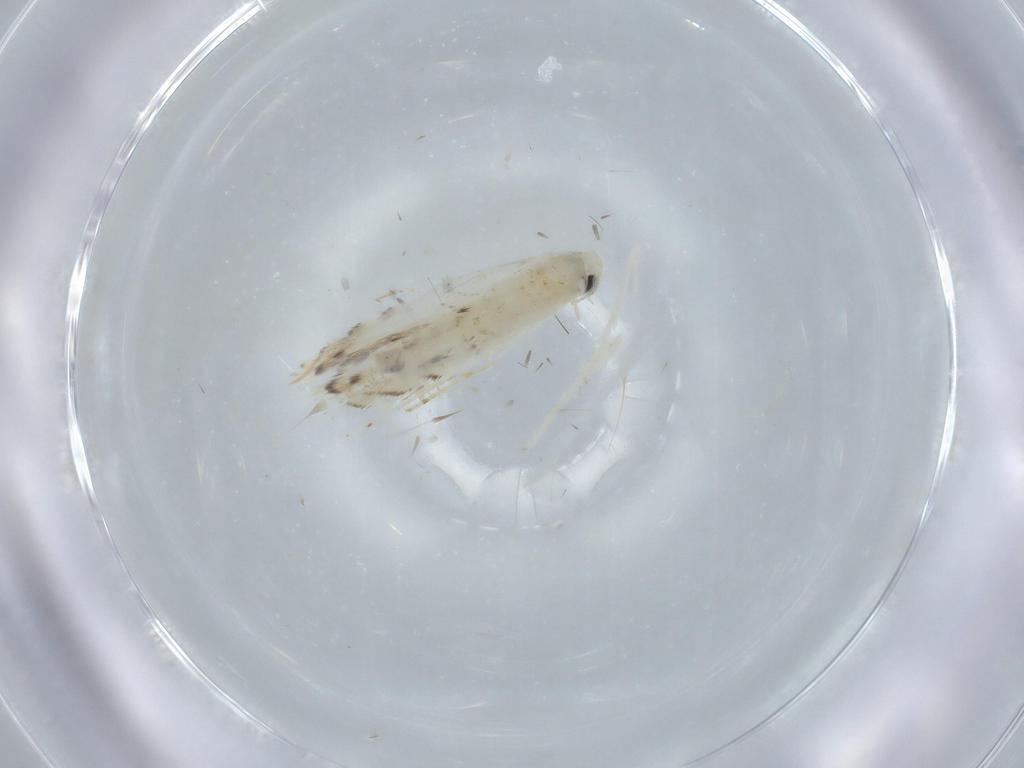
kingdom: Animalia
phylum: Arthropoda
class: Insecta
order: Lepidoptera
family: Gracillariidae
